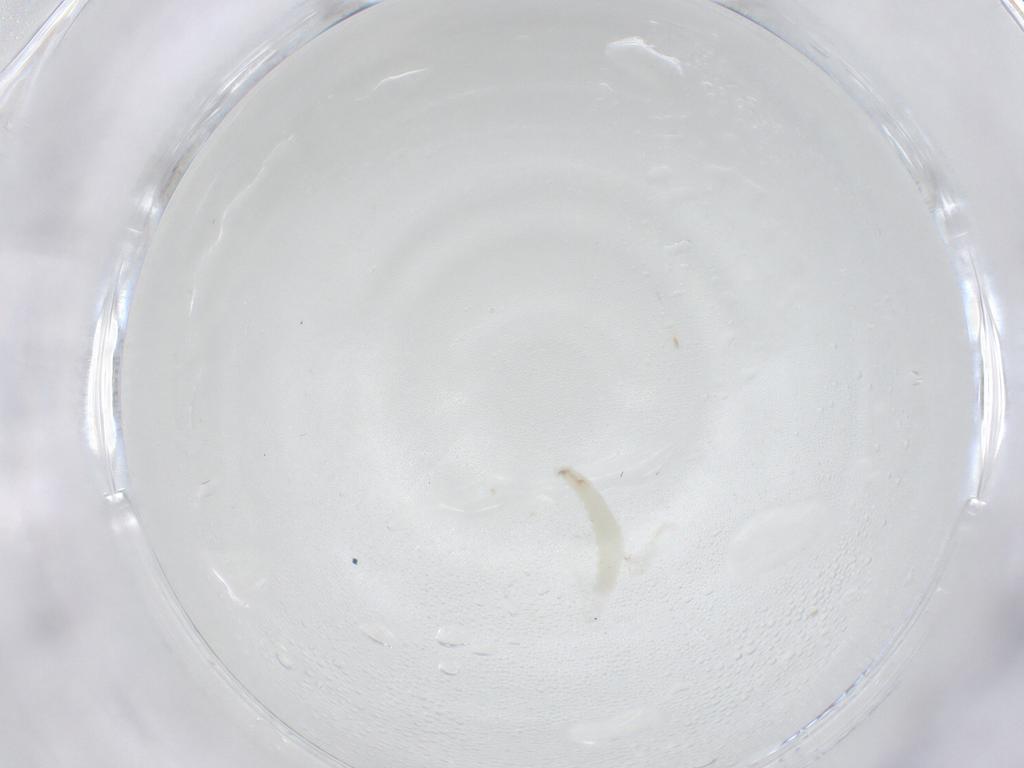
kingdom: Animalia
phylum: Arthropoda
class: Insecta
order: Diptera
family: Sarcophagidae
